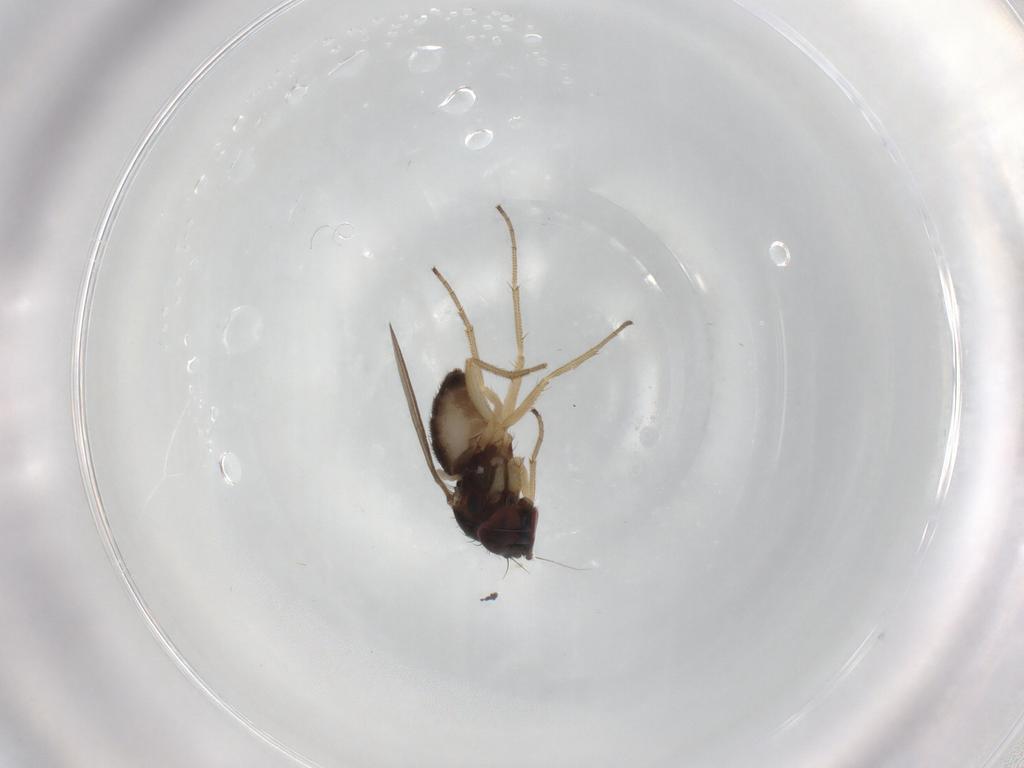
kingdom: Animalia
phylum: Arthropoda
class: Insecta
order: Diptera
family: Dolichopodidae
